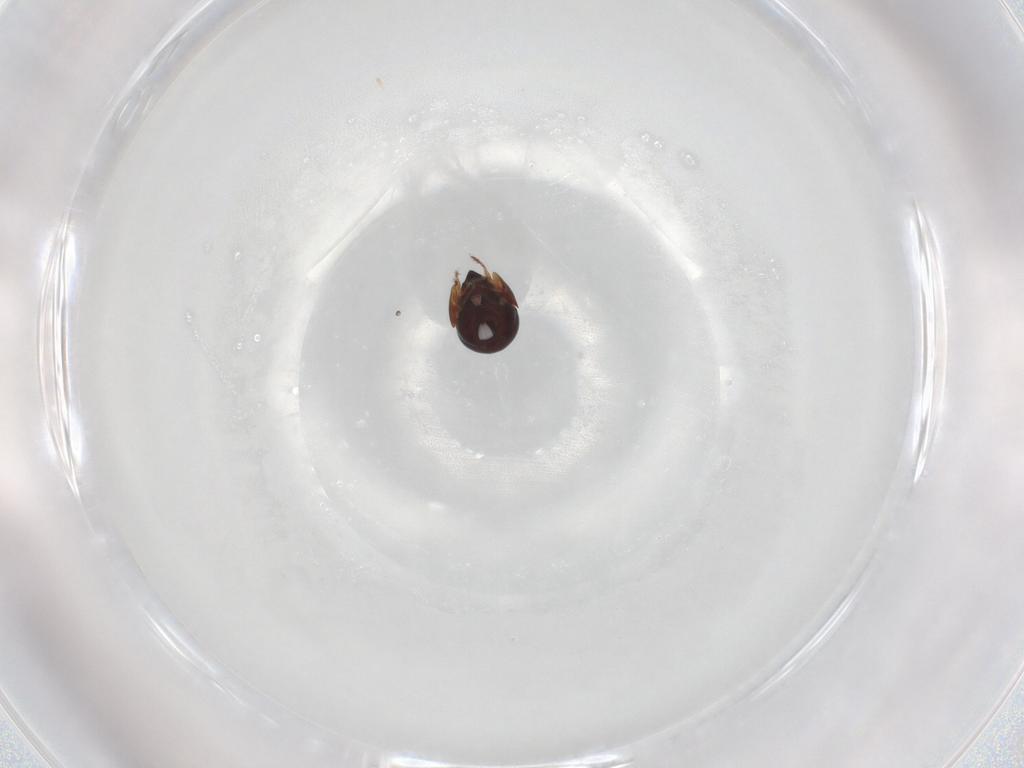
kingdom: Animalia
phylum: Arthropoda
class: Arachnida
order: Sarcoptiformes
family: Ceratozetidae
